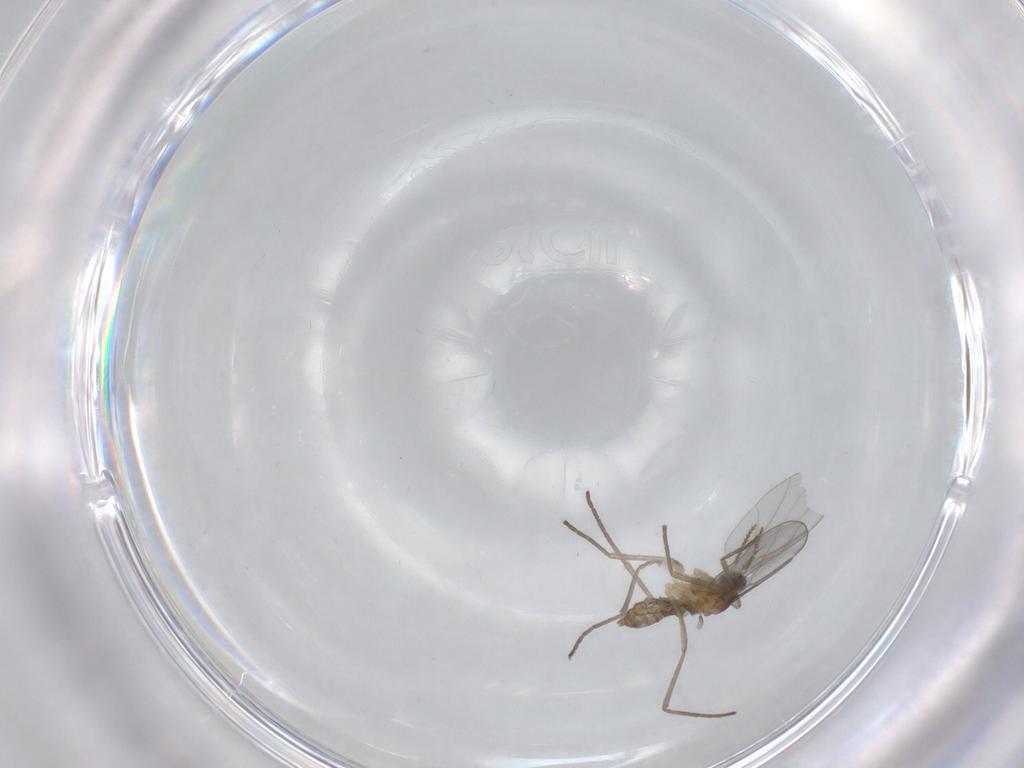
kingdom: Animalia
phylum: Arthropoda
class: Insecta
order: Diptera
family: Cecidomyiidae
